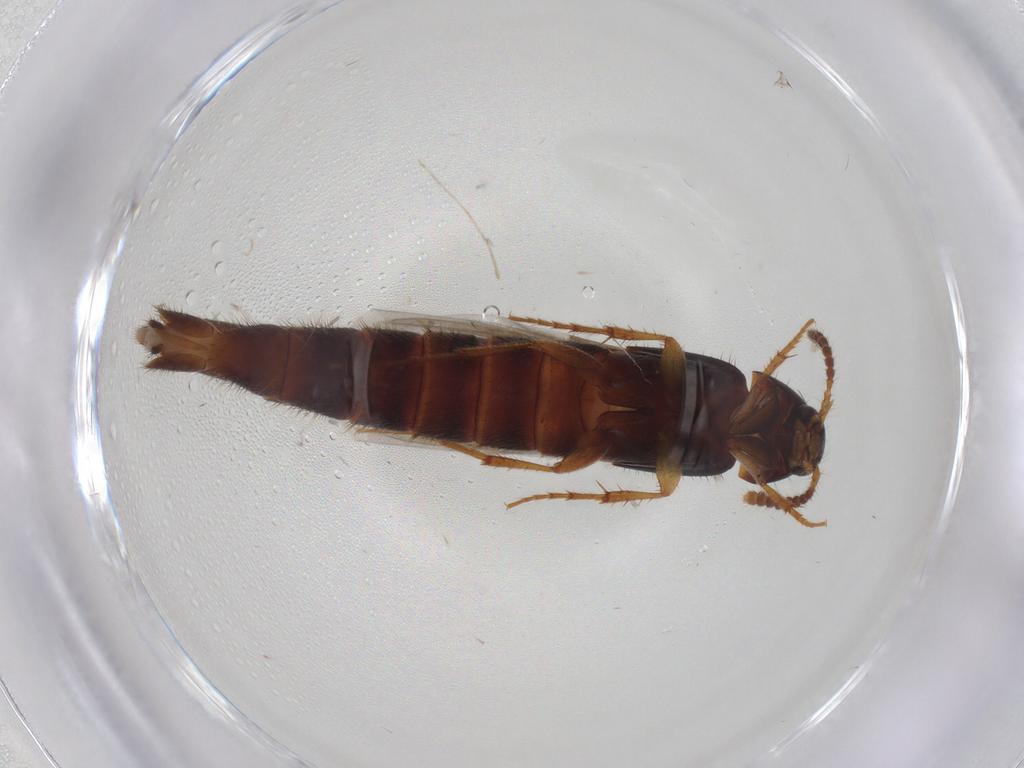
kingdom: Animalia
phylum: Arthropoda
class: Insecta
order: Coleoptera
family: Staphylinidae
